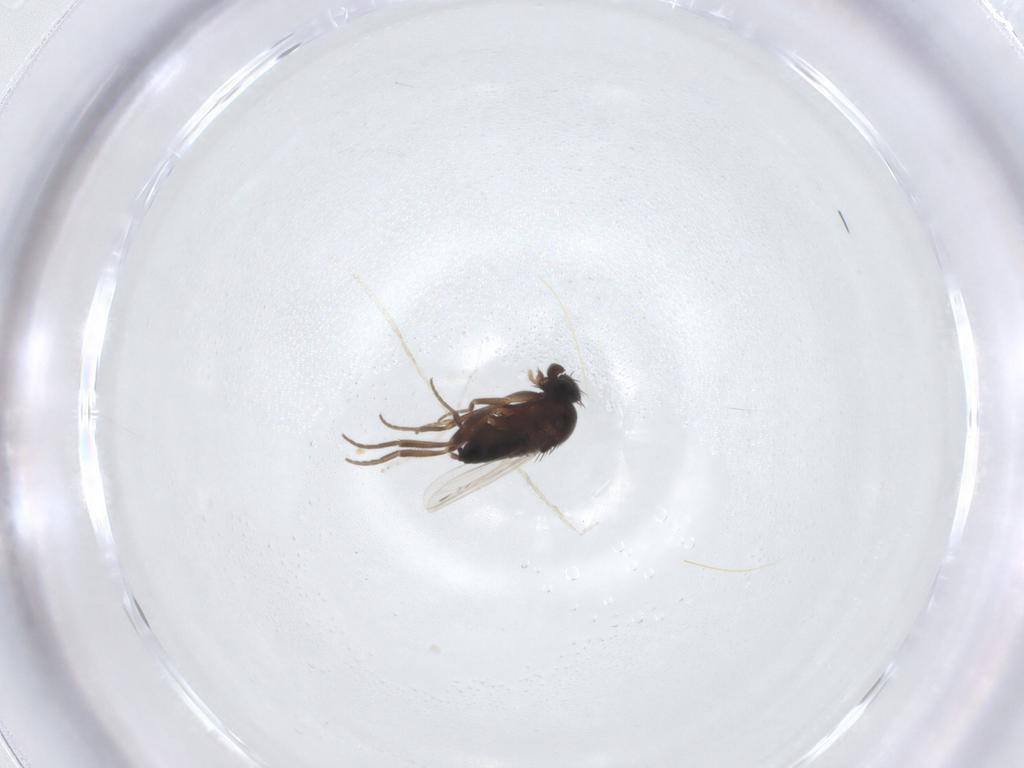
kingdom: Animalia
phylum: Arthropoda
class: Insecta
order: Diptera
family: Phoridae
